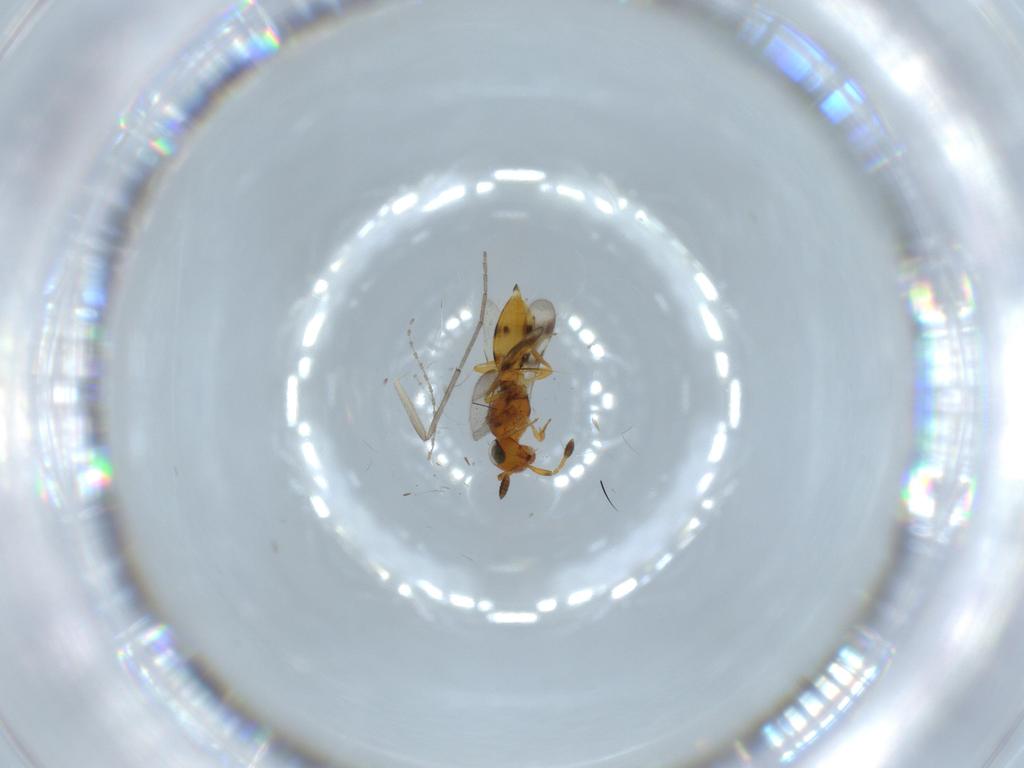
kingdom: Animalia
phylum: Arthropoda
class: Insecta
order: Hymenoptera
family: Scelionidae
